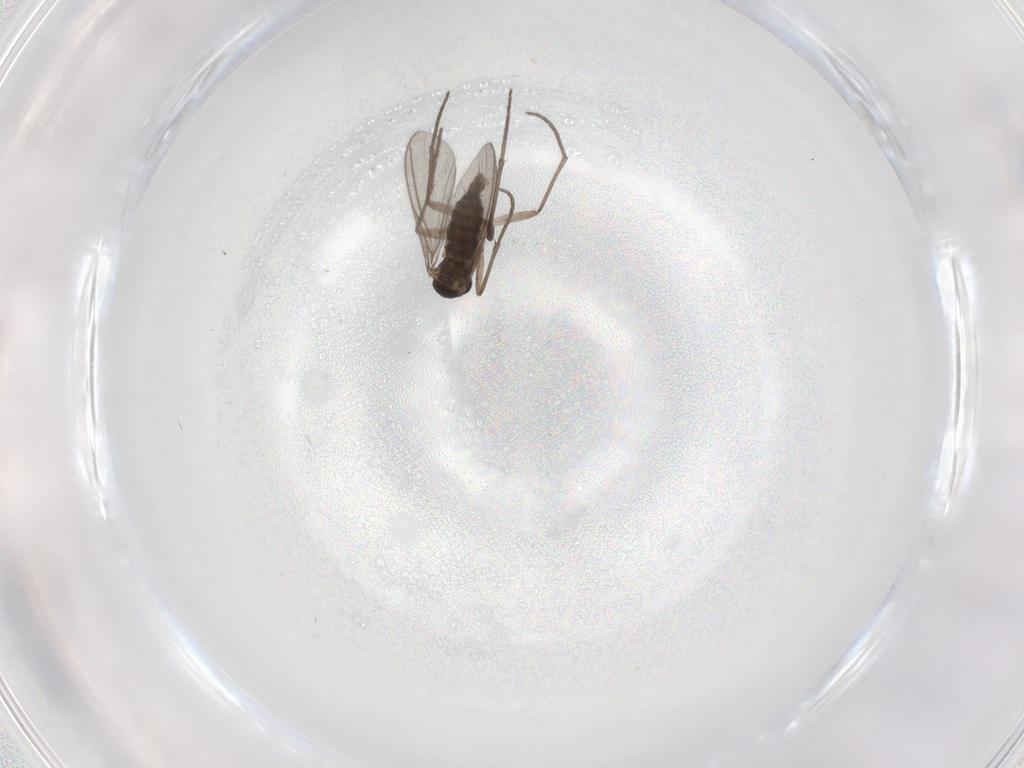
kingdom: Animalia
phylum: Arthropoda
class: Insecta
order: Diptera
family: Sciaridae
